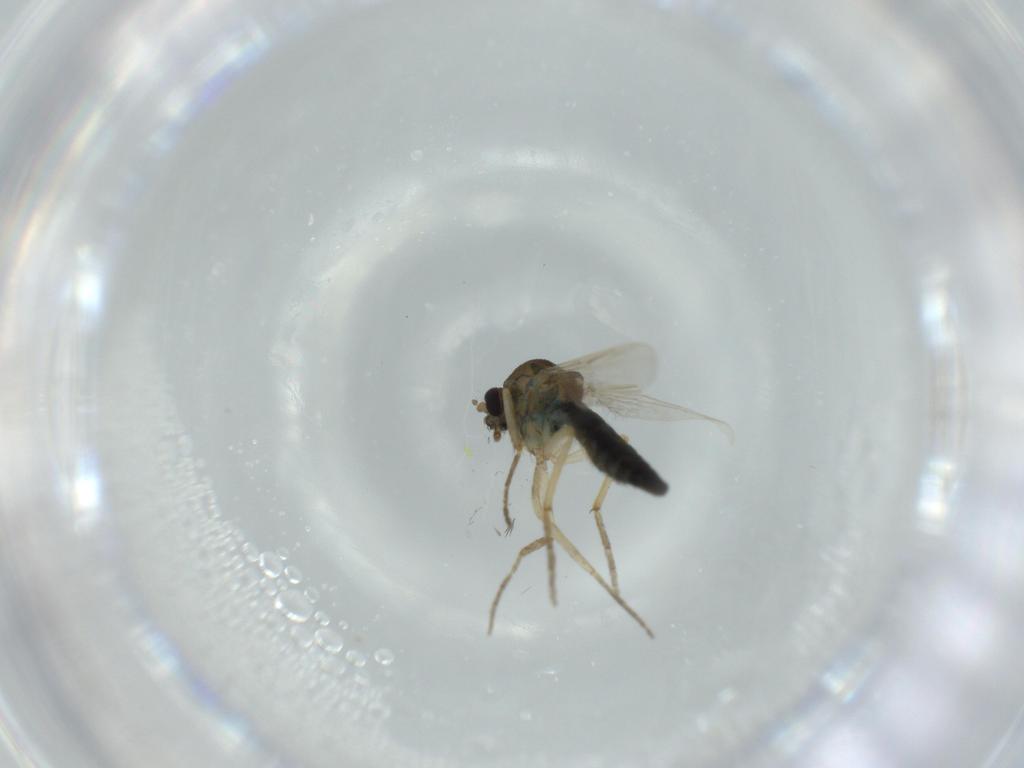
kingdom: Animalia
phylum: Arthropoda
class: Insecta
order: Diptera
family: Ceratopogonidae
